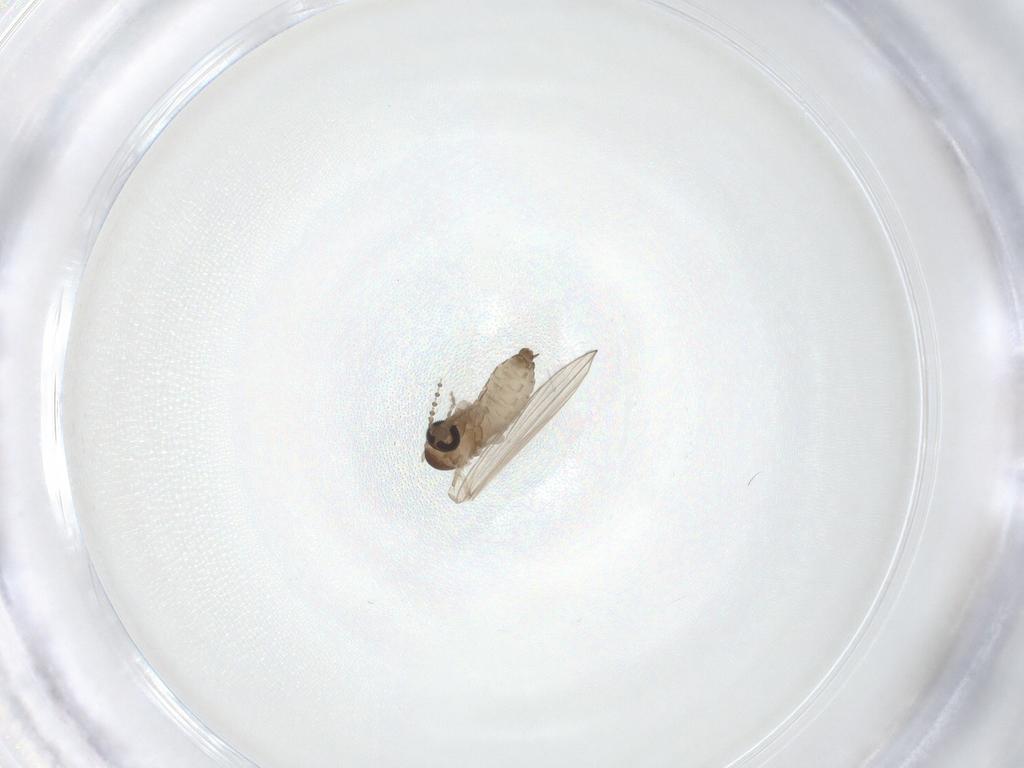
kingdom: Animalia
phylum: Arthropoda
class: Insecta
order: Diptera
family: Psychodidae
